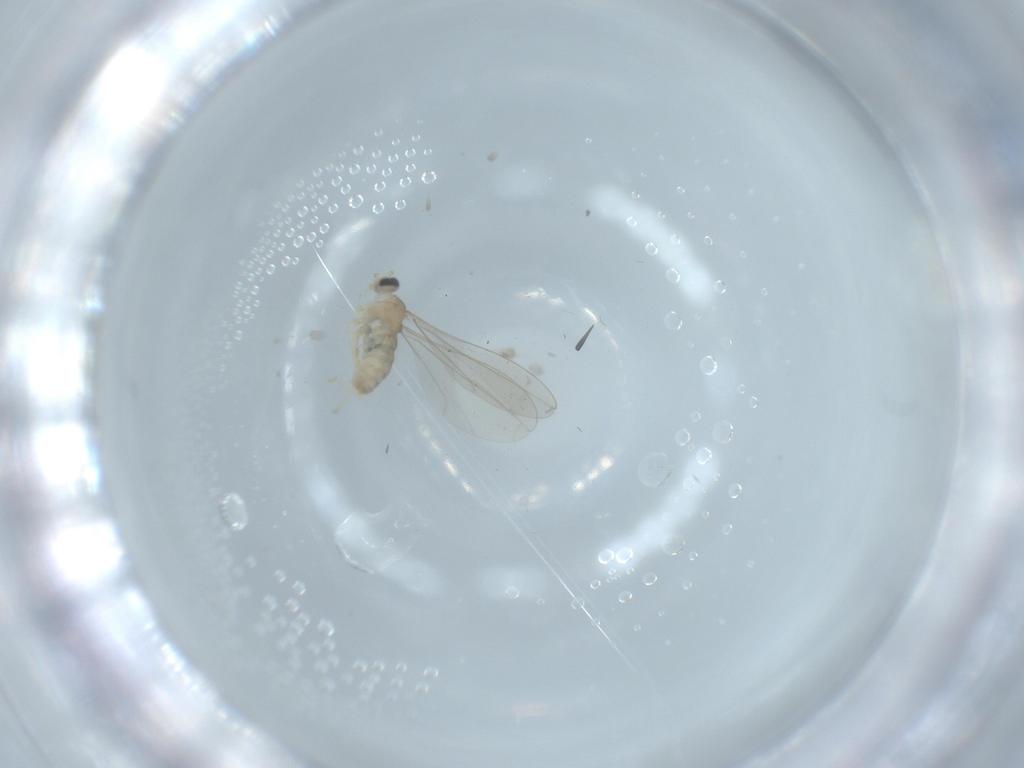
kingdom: Animalia
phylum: Arthropoda
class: Insecta
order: Diptera
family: Cecidomyiidae
